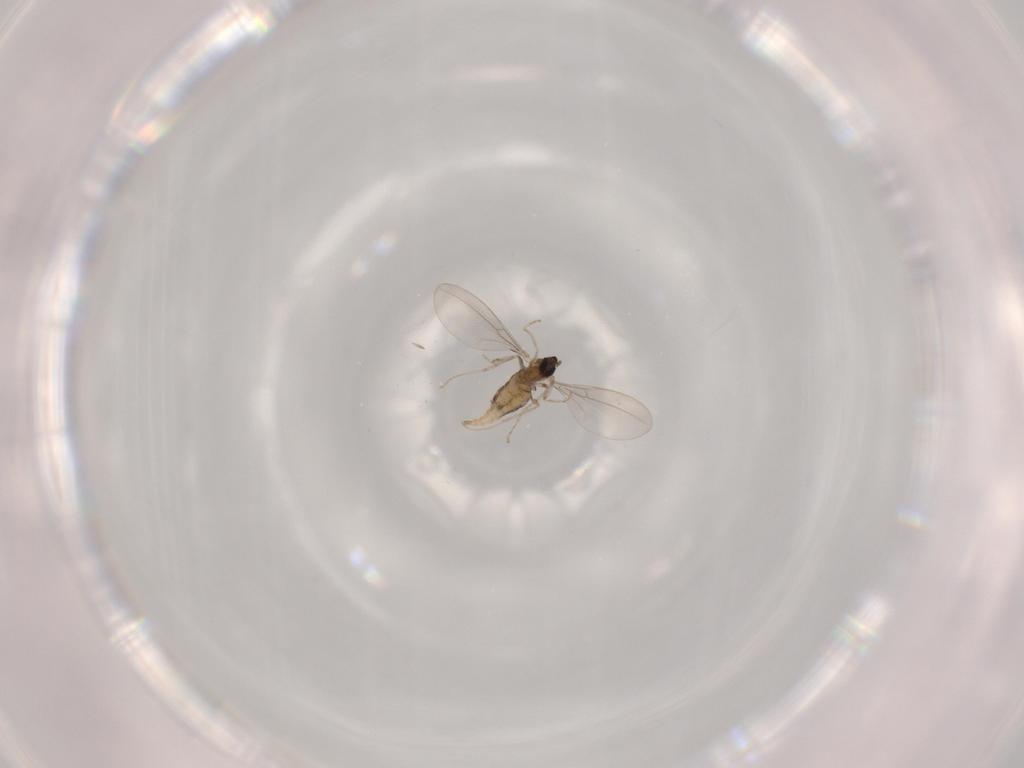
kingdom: Animalia
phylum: Arthropoda
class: Insecta
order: Diptera
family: Cecidomyiidae
